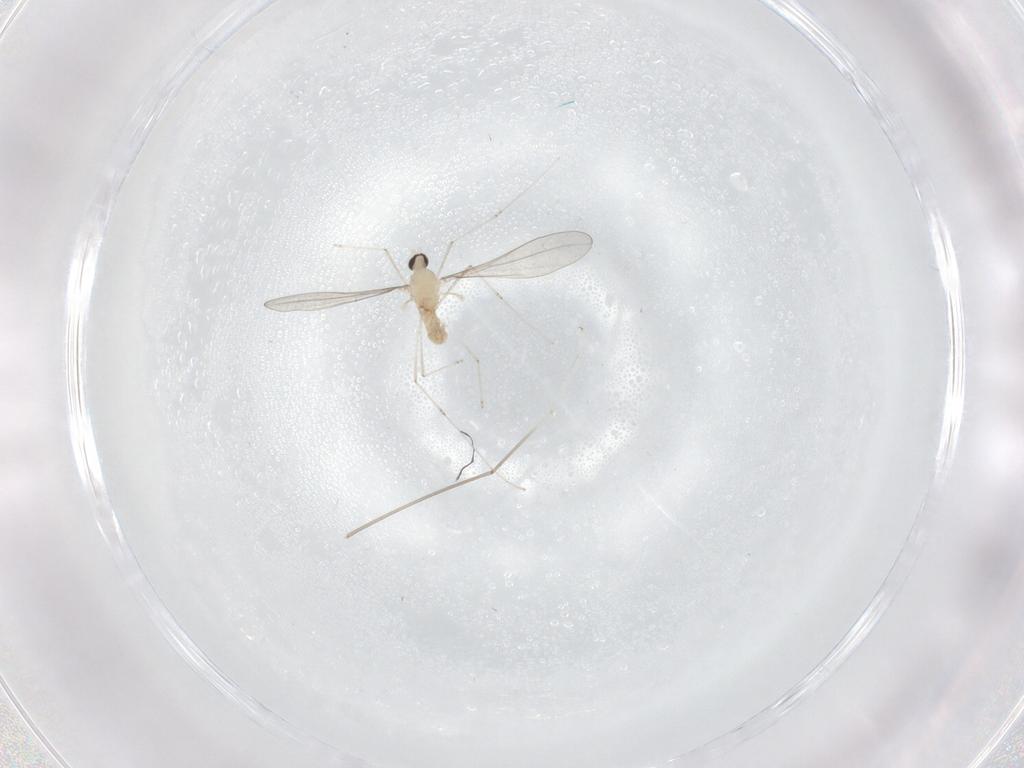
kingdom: Animalia
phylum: Arthropoda
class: Insecta
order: Diptera
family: Cecidomyiidae
